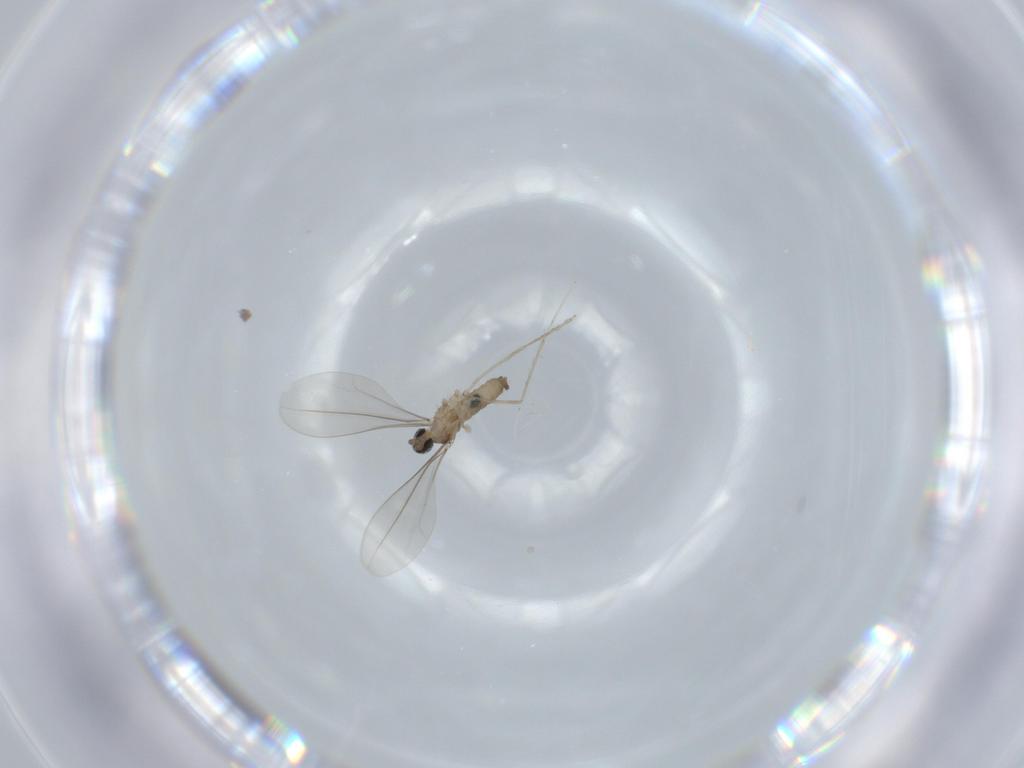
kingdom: Animalia
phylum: Arthropoda
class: Insecta
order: Diptera
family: Cecidomyiidae
